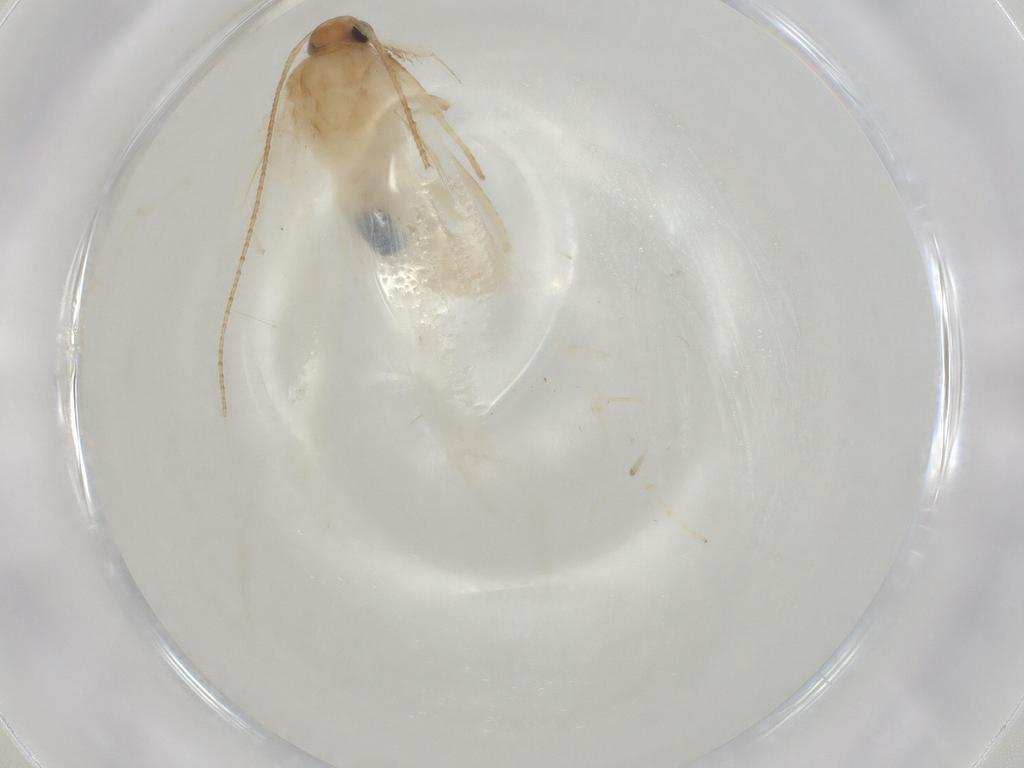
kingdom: Animalia
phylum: Arthropoda
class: Insecta
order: Lepidoptera
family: Gelechiidae
